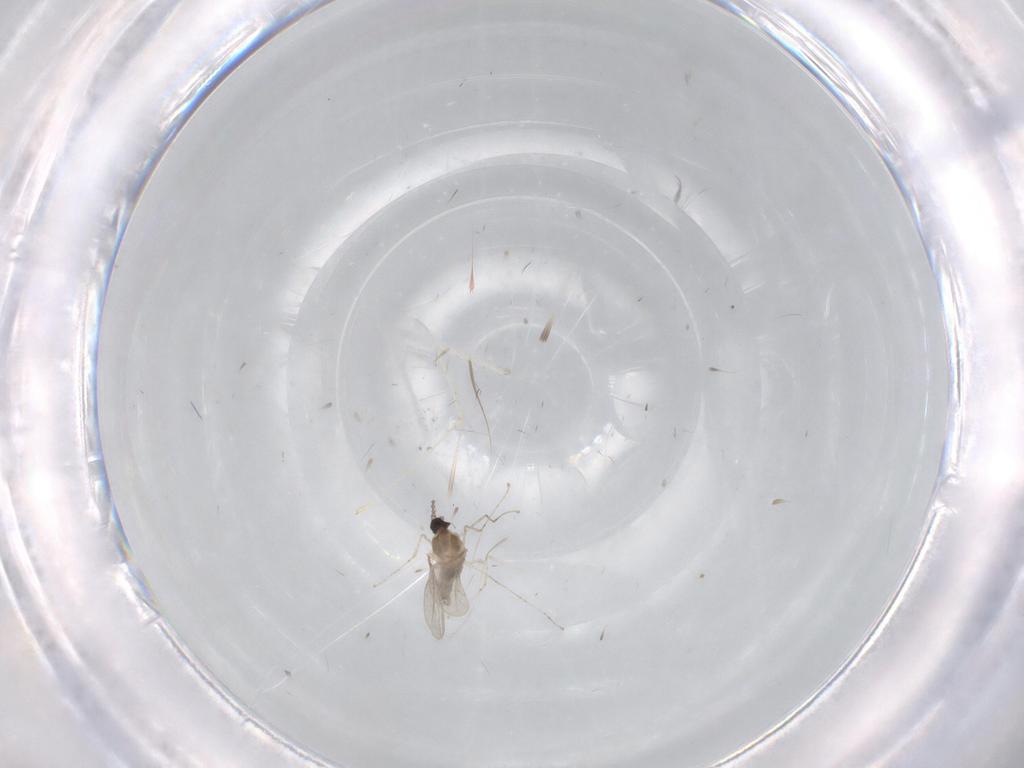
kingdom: Animalia
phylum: Arthropoda
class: Insecta
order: Diptera
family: Cecidomyiidae
